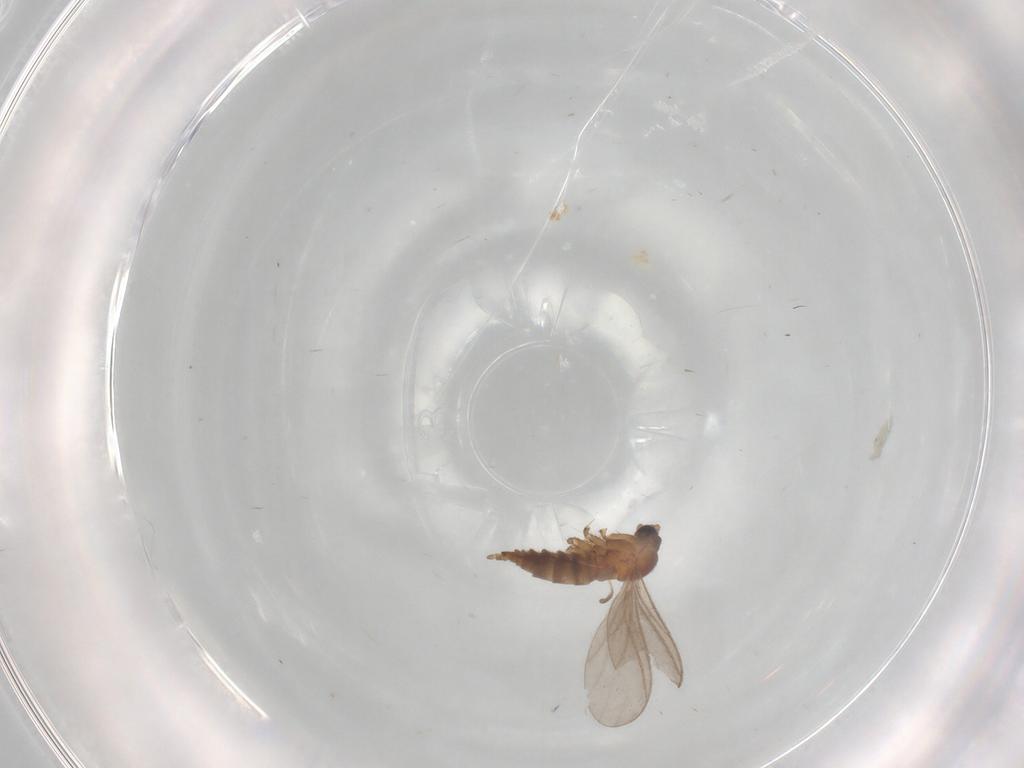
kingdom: Animalia
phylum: Arthropoda
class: Insecta
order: Diptera
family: Sciaridae
